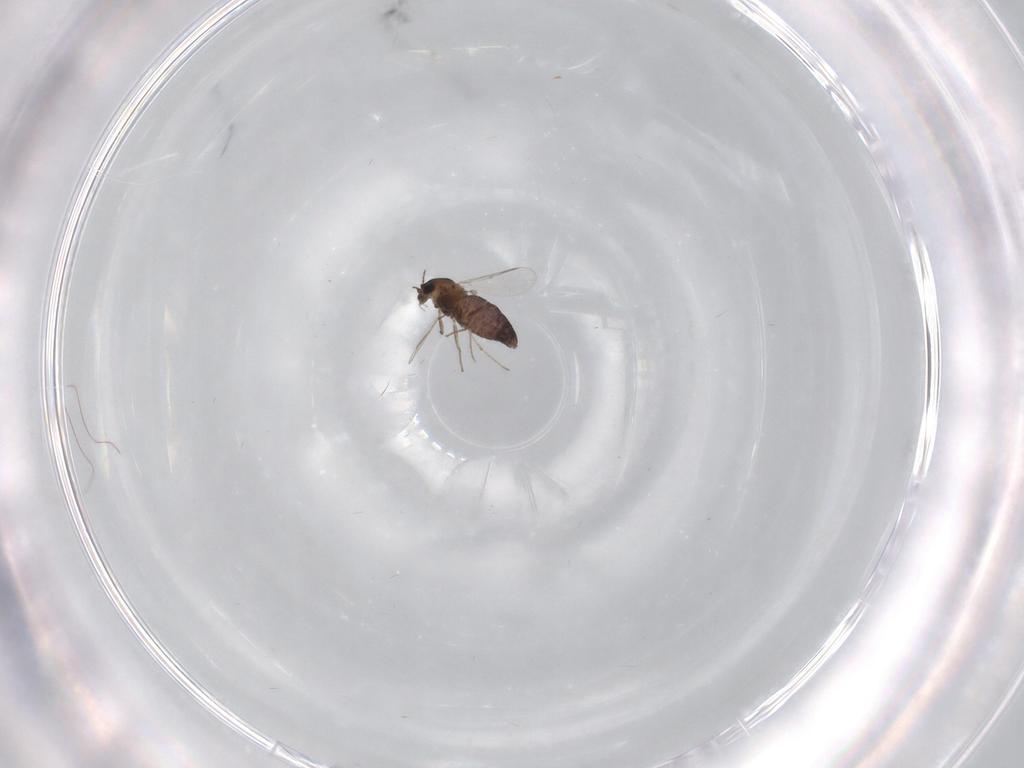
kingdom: Animalia
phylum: Arthropoda
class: Insecta
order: Diptera
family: Chironomidae
